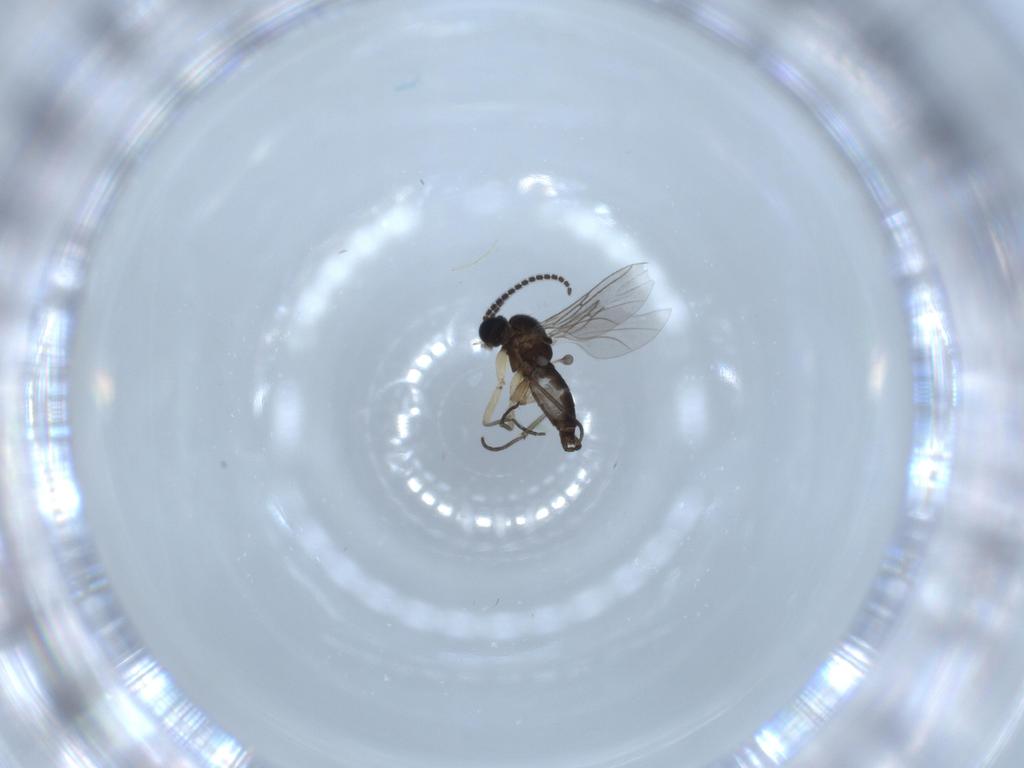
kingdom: Animalia
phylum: Arthropoda
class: Insecta
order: Diptera
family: Sciaridae
